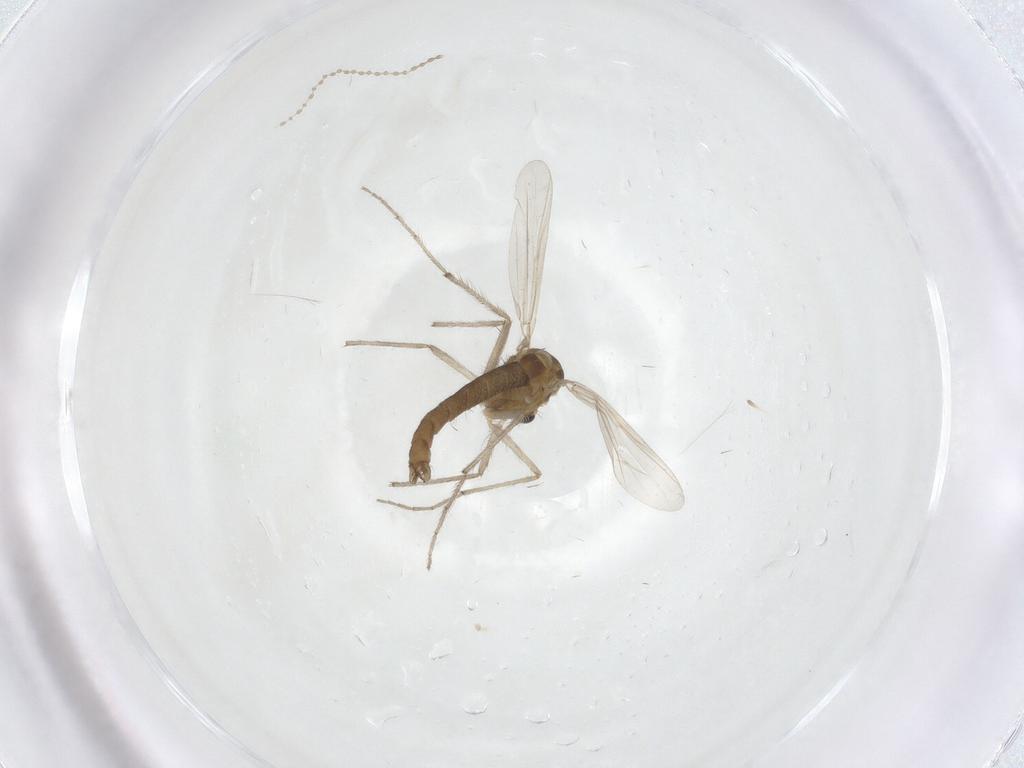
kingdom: Animalia
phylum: Arthropoda
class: Insecta
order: Diptera
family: Chironomidae
